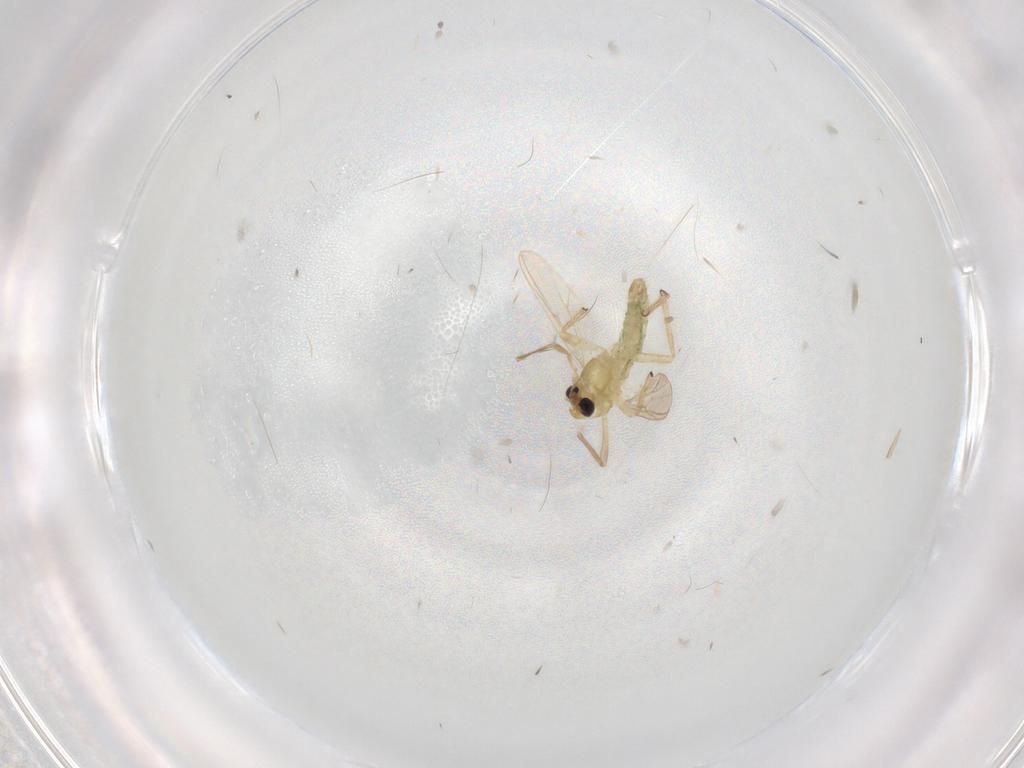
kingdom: Animalia
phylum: Arthropoda
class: Insecta
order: Diptera
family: Chironomidae
